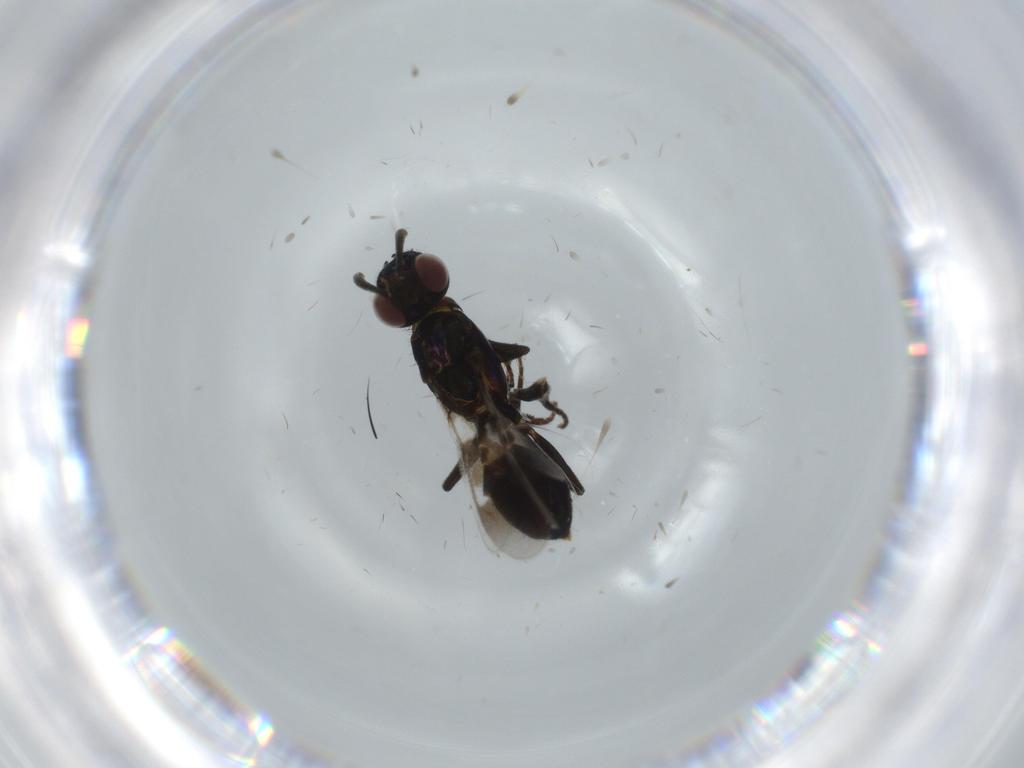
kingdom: Animalia
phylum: Arthropoda
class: Insecta
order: Hymenoptera
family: Eupelmidae
